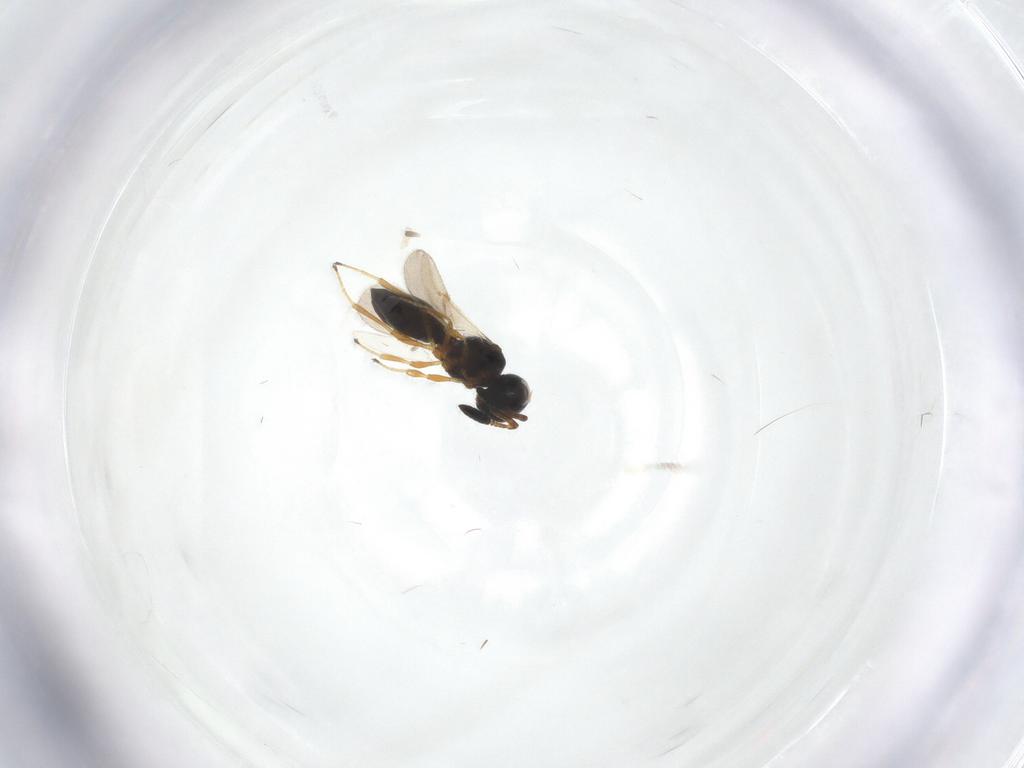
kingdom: Animalia
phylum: Arthropoda
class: Insecta
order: Hymenoptera
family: Scelionidae
